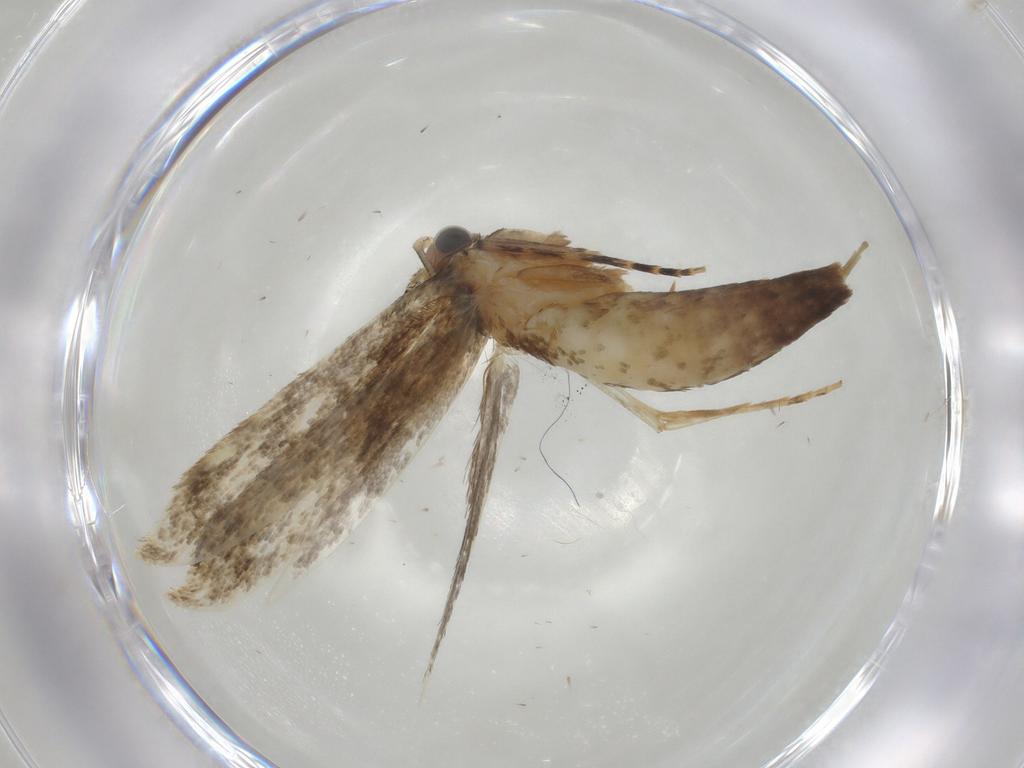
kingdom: Animalia
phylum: Arthropoda
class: Insecta
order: Lepidoptera
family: Tineidae
